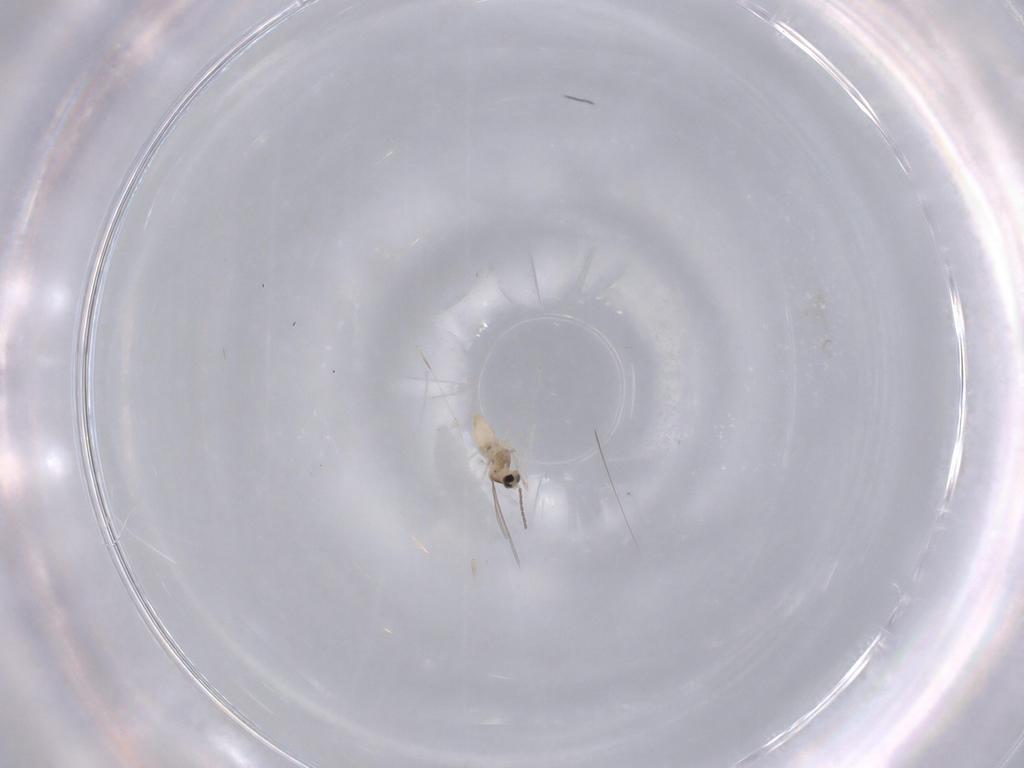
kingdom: Animalia
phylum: Arthropoda
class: Insecta
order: Diptera
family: Cecidomyiidae
